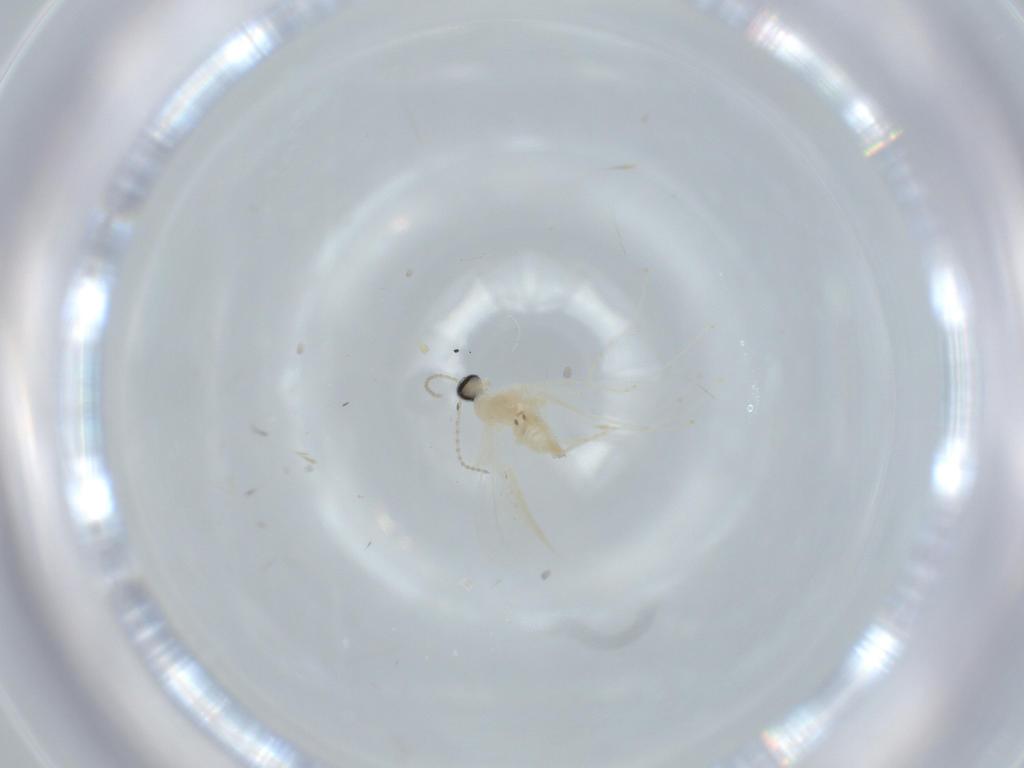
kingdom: Animalia
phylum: Arthropoda
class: Insecta
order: Diptera
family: Cecidomyiidae
